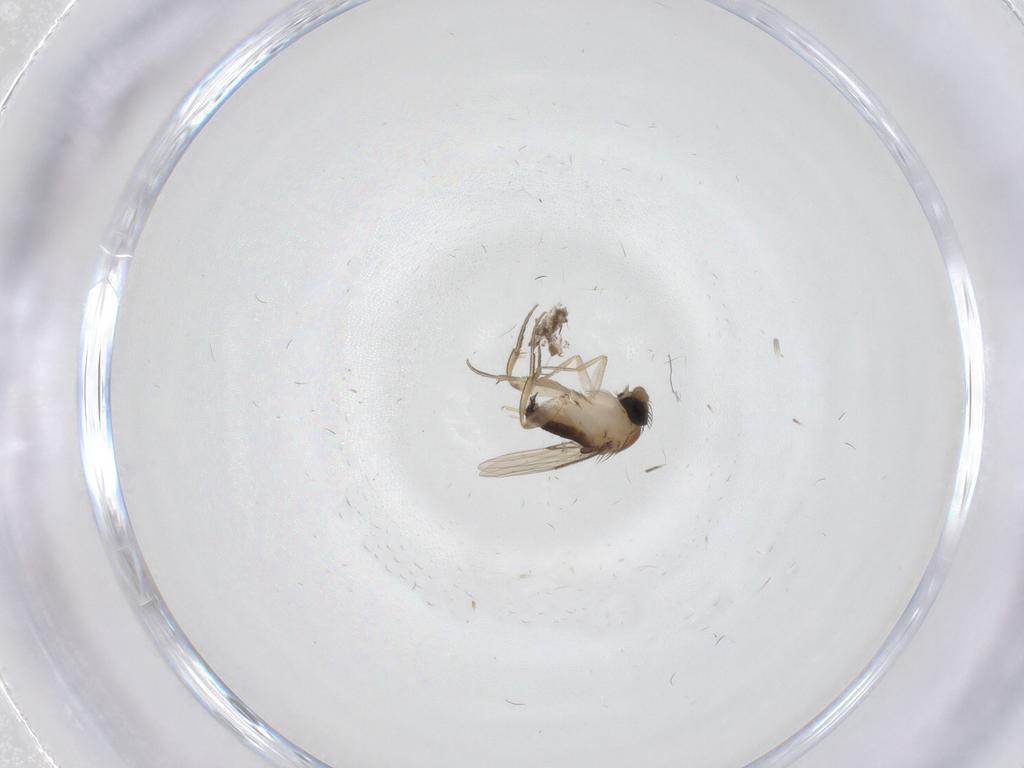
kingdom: Animalia
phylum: Arthropoda
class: Insecta
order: Diptera
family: Phoridae
